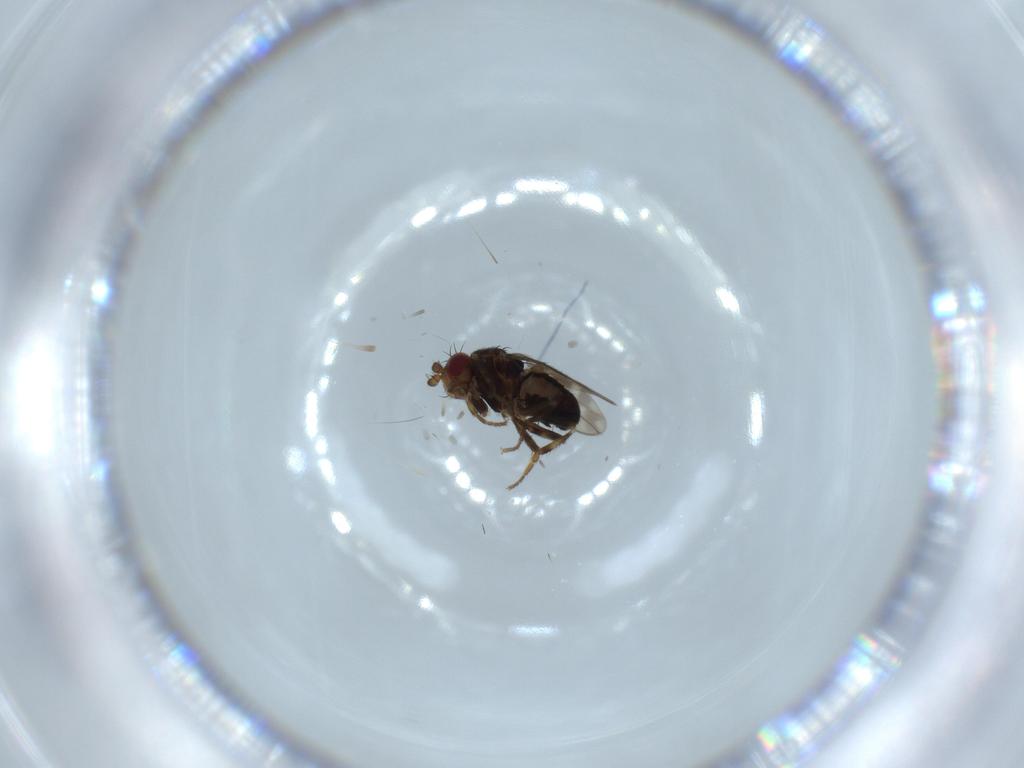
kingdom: Animalia
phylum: Arthropoda
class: Insecta
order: Diptera
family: Sphaeroceridae
